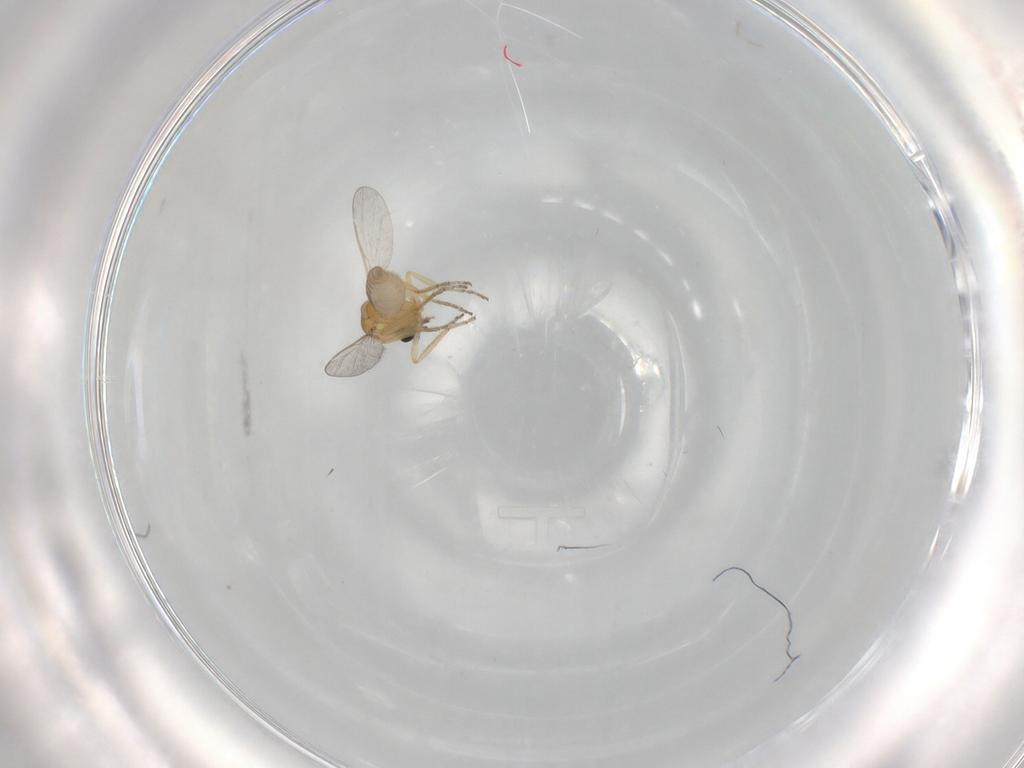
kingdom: Animalia
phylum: Arthropoda
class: Insecta
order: Diptera
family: Ceratopogonidae
